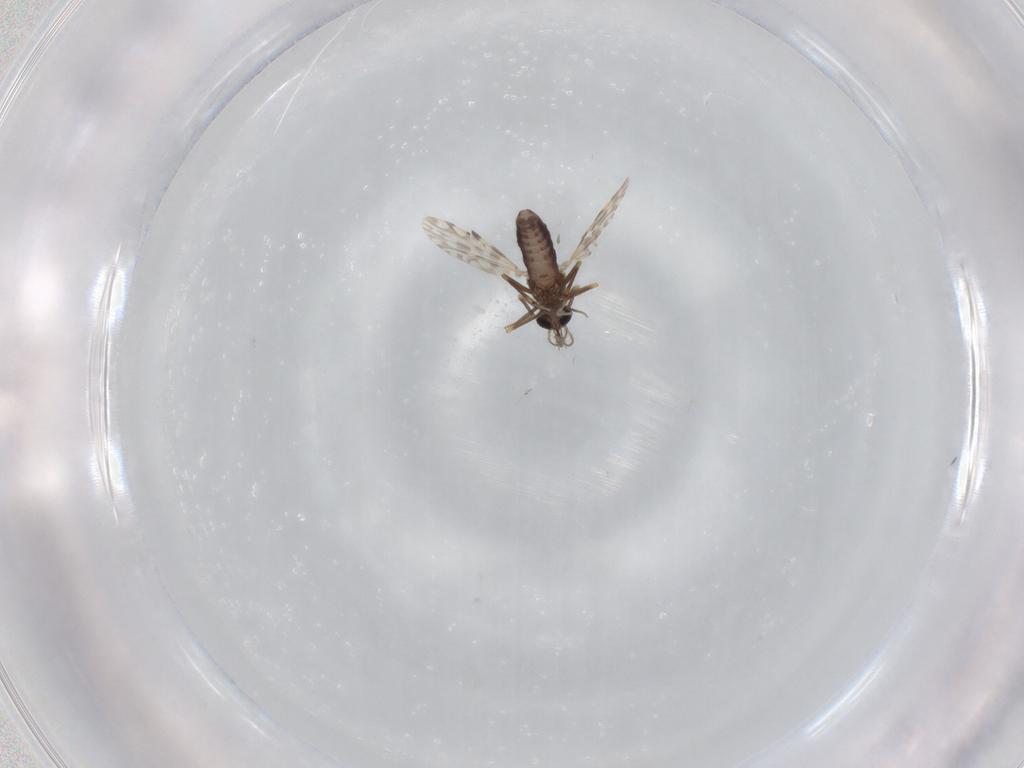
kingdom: Animalia
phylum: Arthropoda
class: Insecta
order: Diptera
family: Ceratopogonidae
